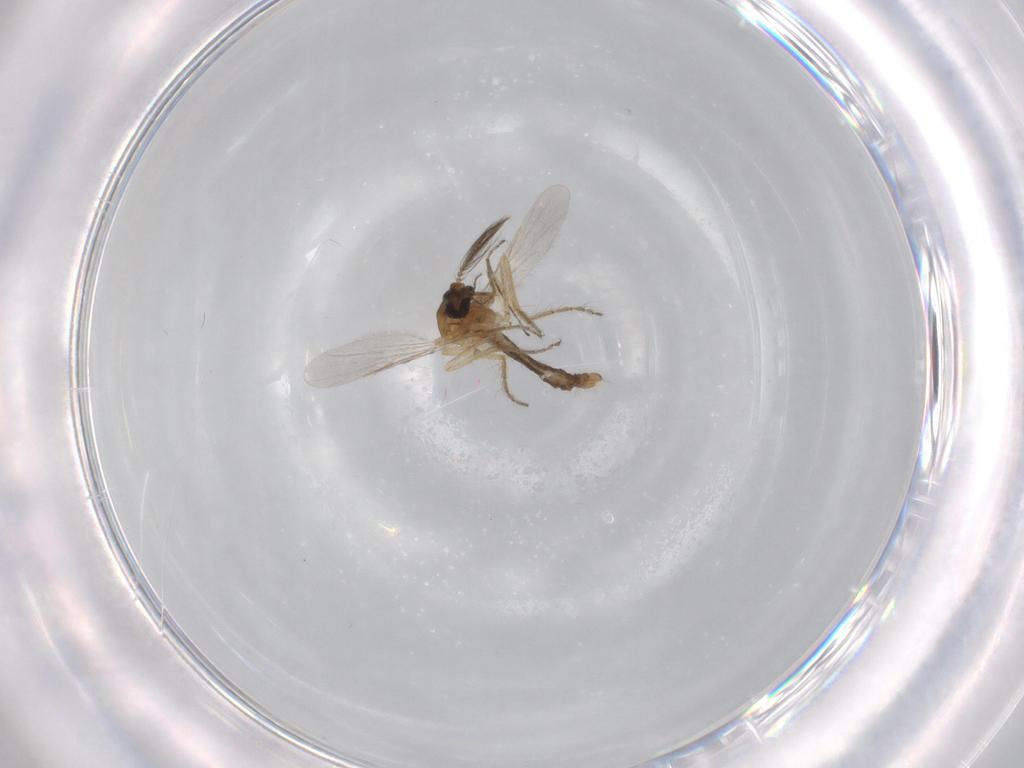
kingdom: Animalia
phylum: Arthropoda
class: Insecta
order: Diptera
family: Ceratopogonidae
